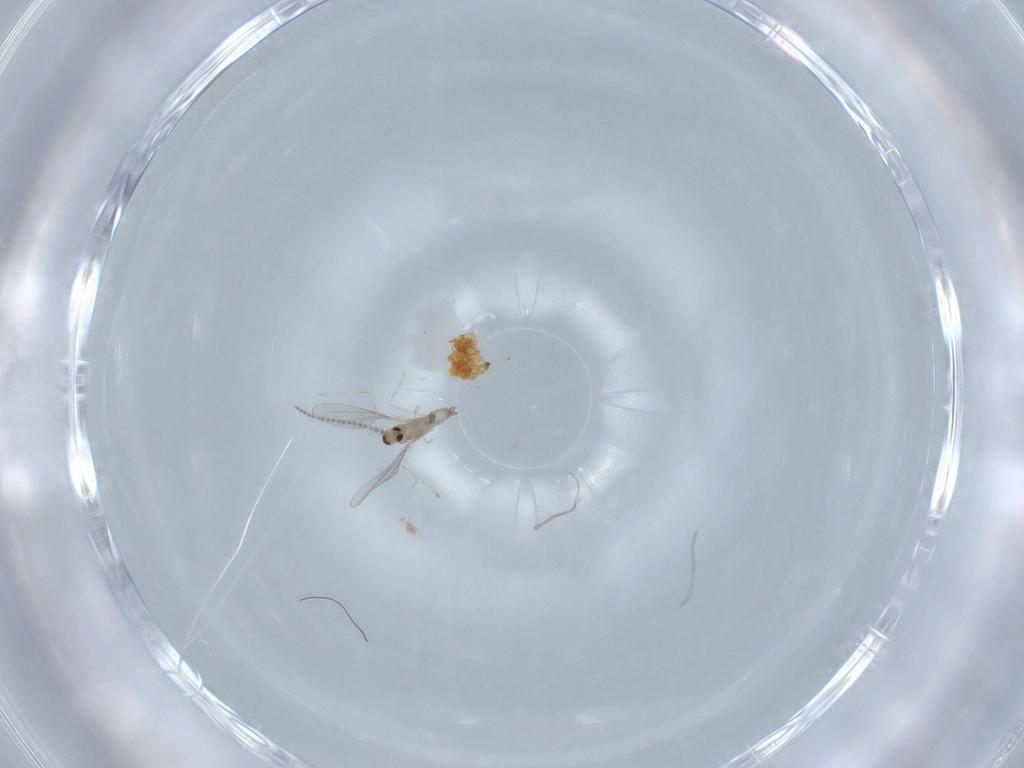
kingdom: Animalia
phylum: Arthropoda
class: Insecta
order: Diptera
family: Cecidomyiidae
